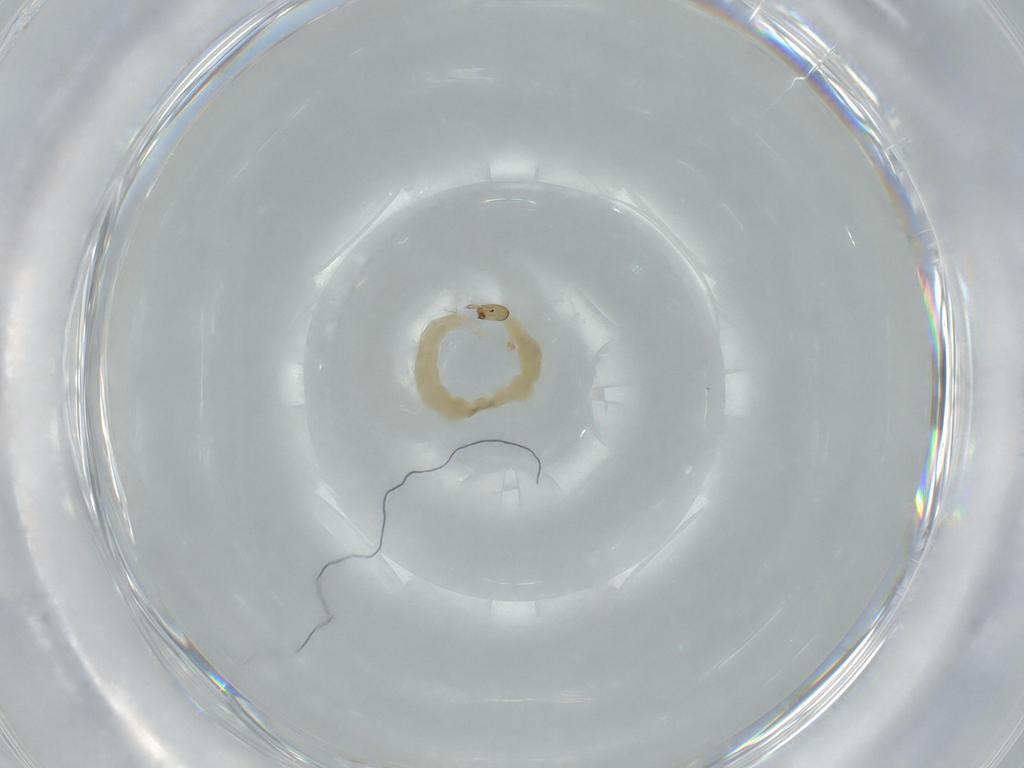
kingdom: Animalia
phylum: Arthropoda
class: Insecta
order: Diptera
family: Chironomidae
